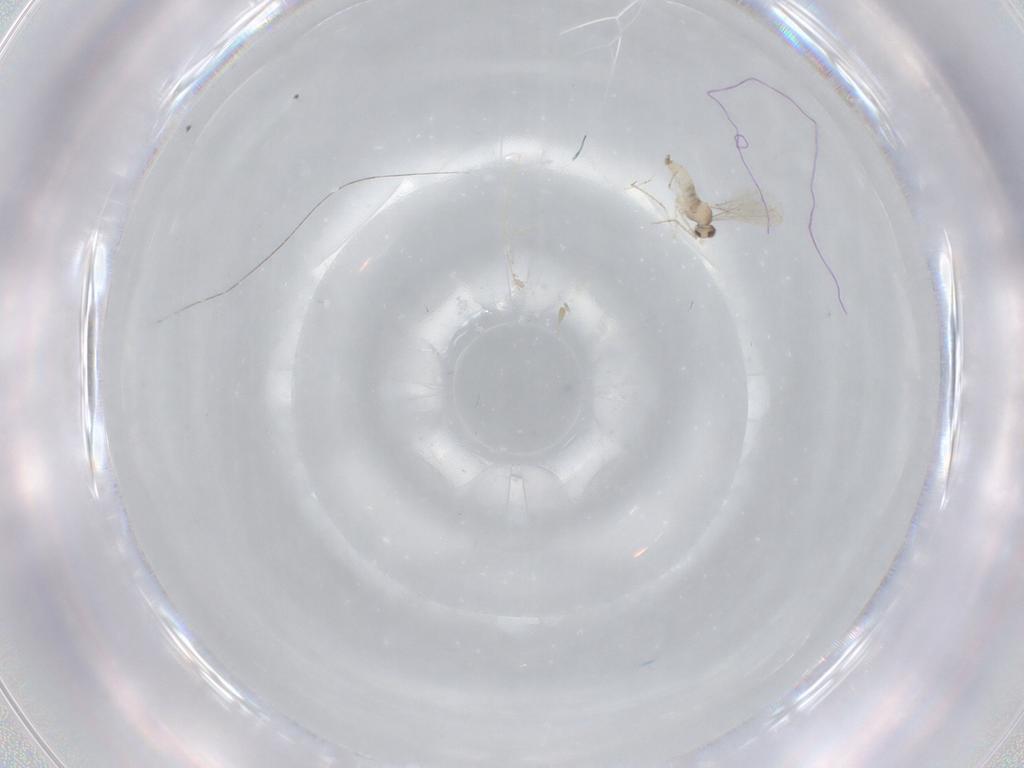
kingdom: Animalia
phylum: Arthropoda
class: Insecta
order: Diptera
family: Cecidomyiidae
